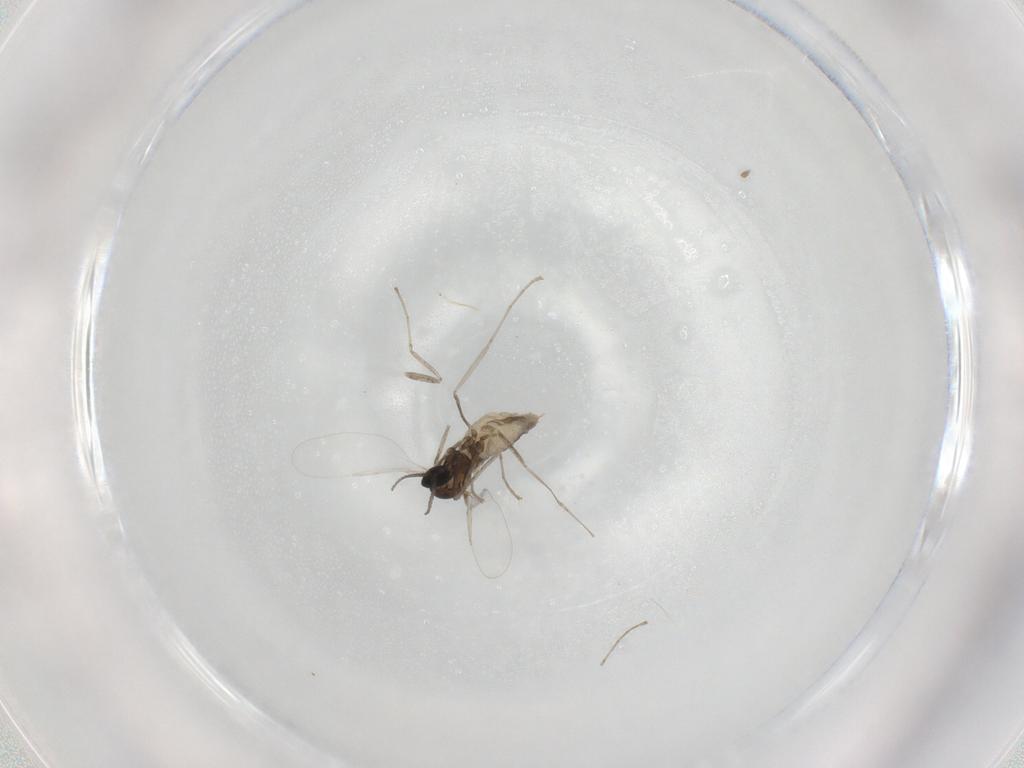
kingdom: Animalia
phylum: Arthropoda
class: Insecta
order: Diptera
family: Cecidomyiidae
